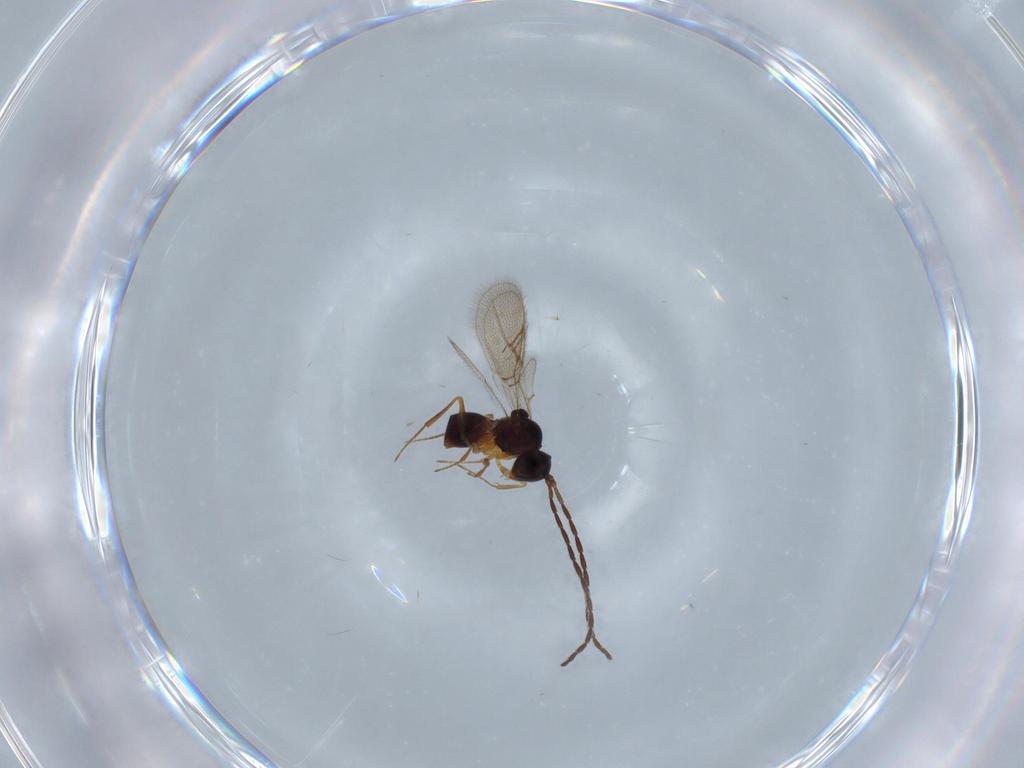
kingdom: Animalia
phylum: Arthropoda
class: Insecta
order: Hymenoptera
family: Figitidae
